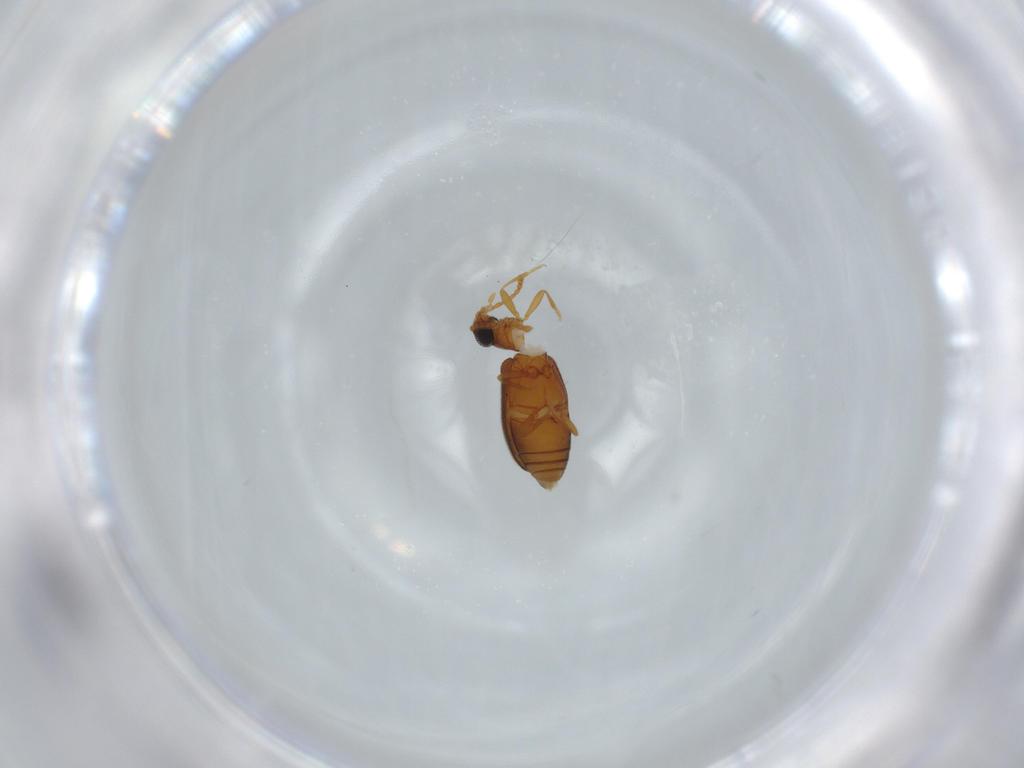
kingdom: Animalia
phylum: Arthropoda
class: Insecta
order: Coleoptera
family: Aderidae
